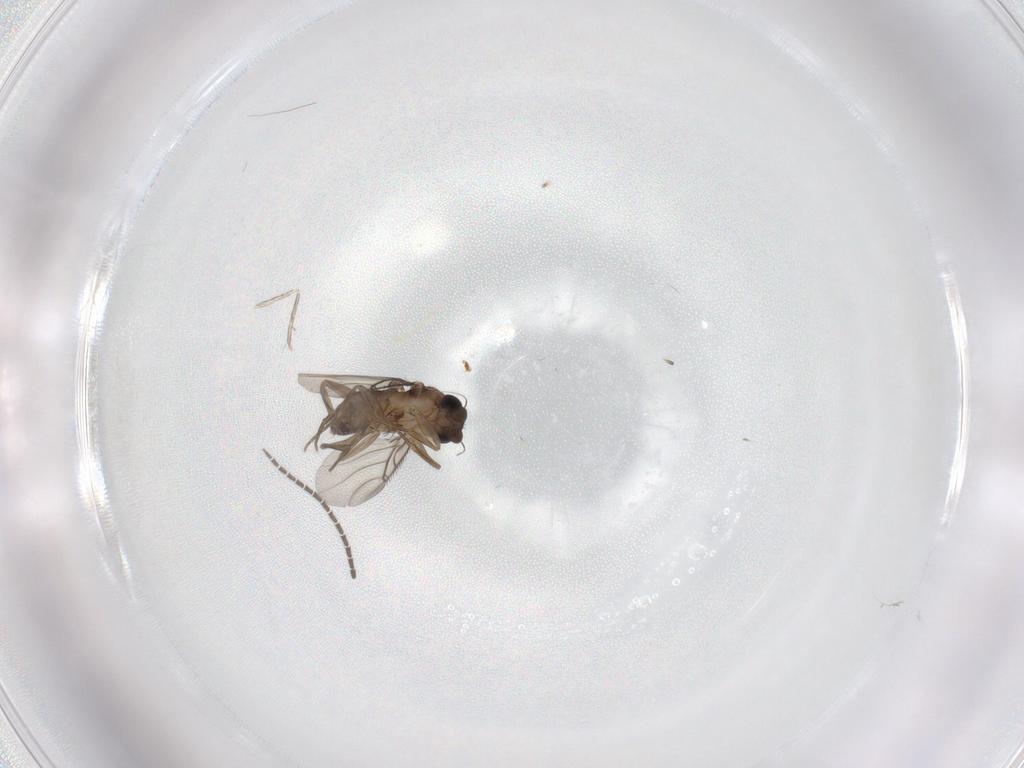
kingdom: Animalia
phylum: Arthropoda
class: Insecta
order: Diptera
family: Phoridae
